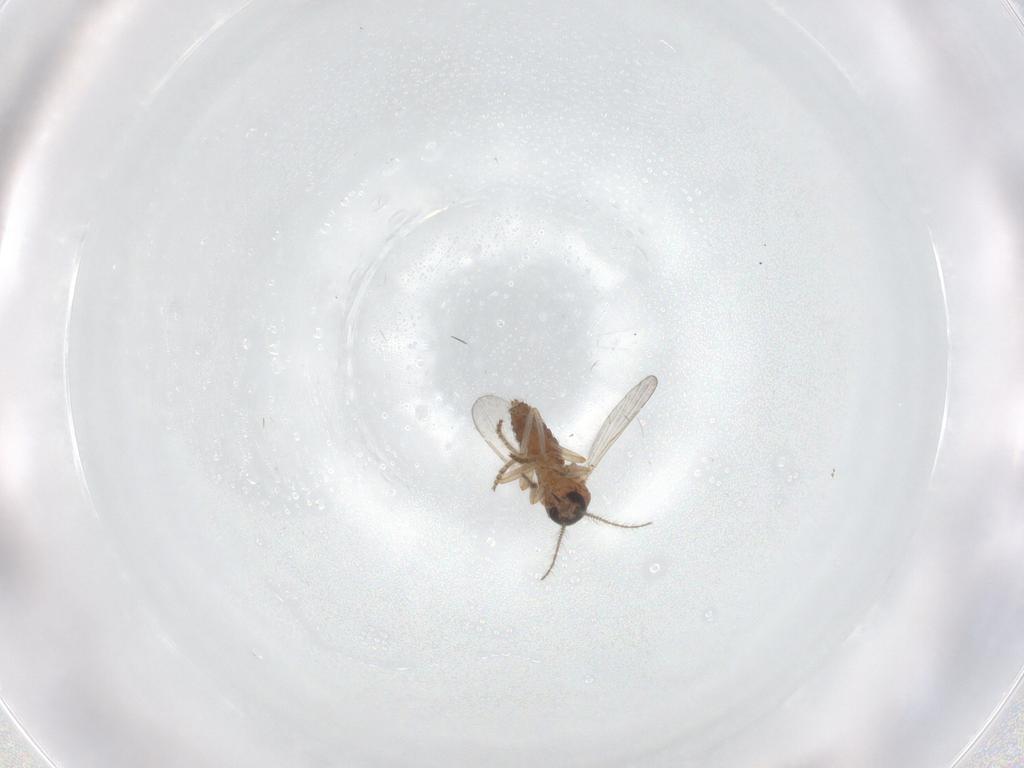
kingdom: Animalia
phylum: Arthropoda
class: Insecta
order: Diptera
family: Ceratopogonidae
